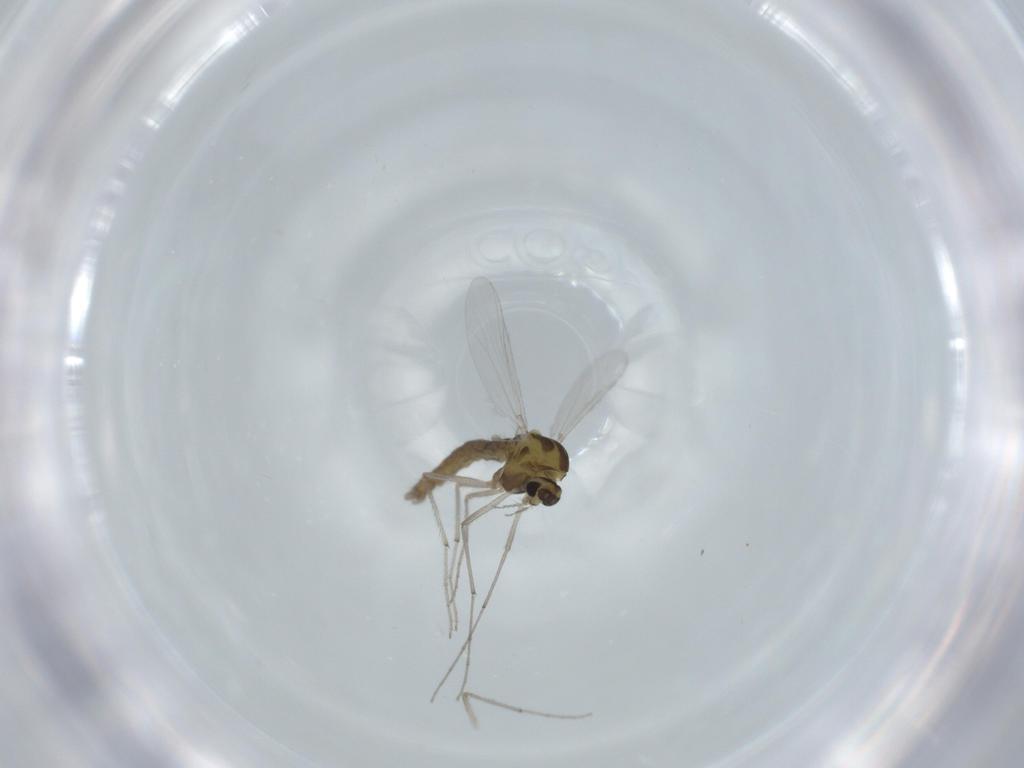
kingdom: Animalia
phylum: Arthropoda
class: Insecta
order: Diptera
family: Chironomidae
